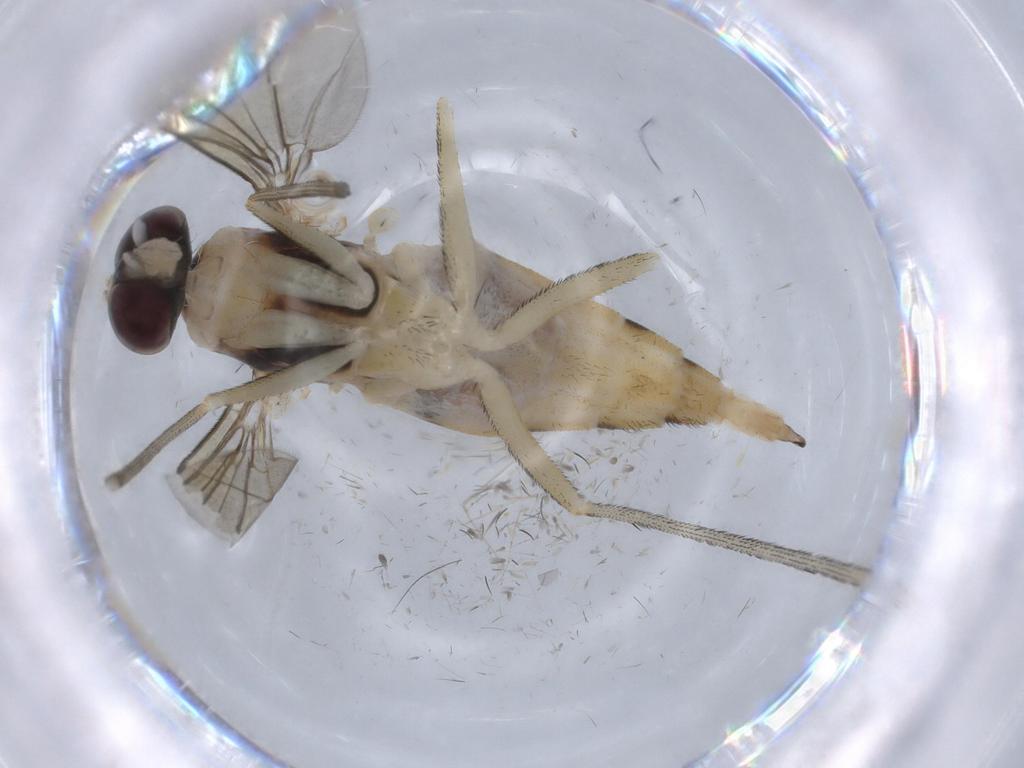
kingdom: Animalia
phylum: Arthropoda
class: Insecta
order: Diptera
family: Cecidomyiidae
